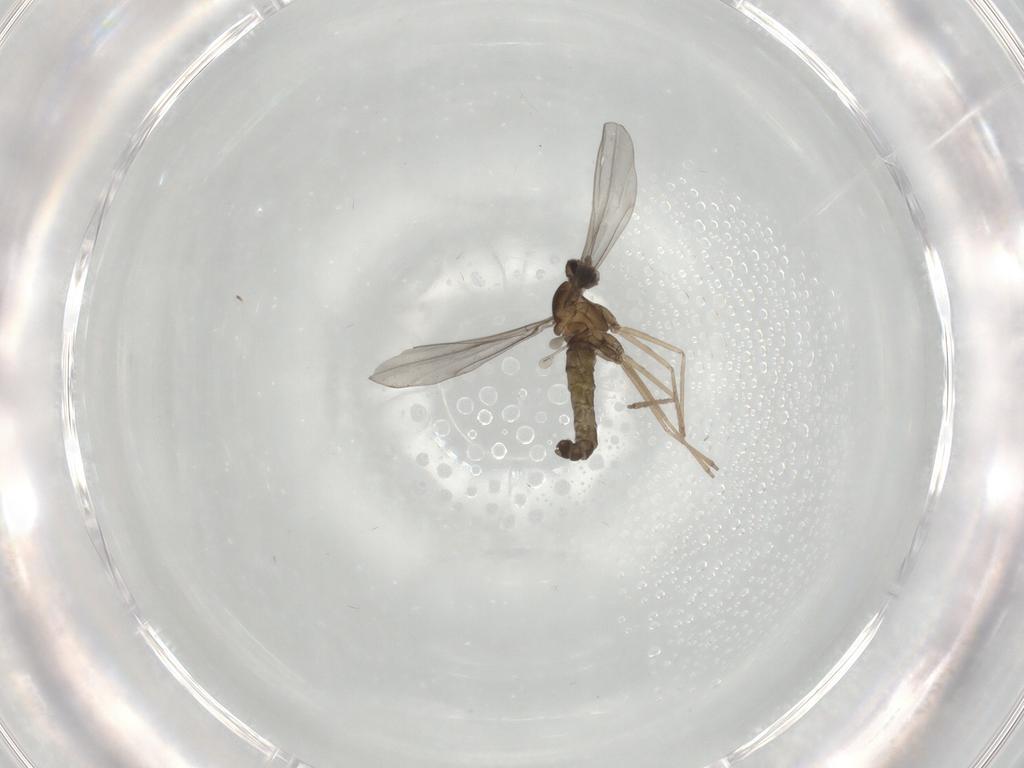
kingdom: Animalia
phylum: Arthropoda
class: Insecta
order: Diptera
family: Cecidomyiidae
